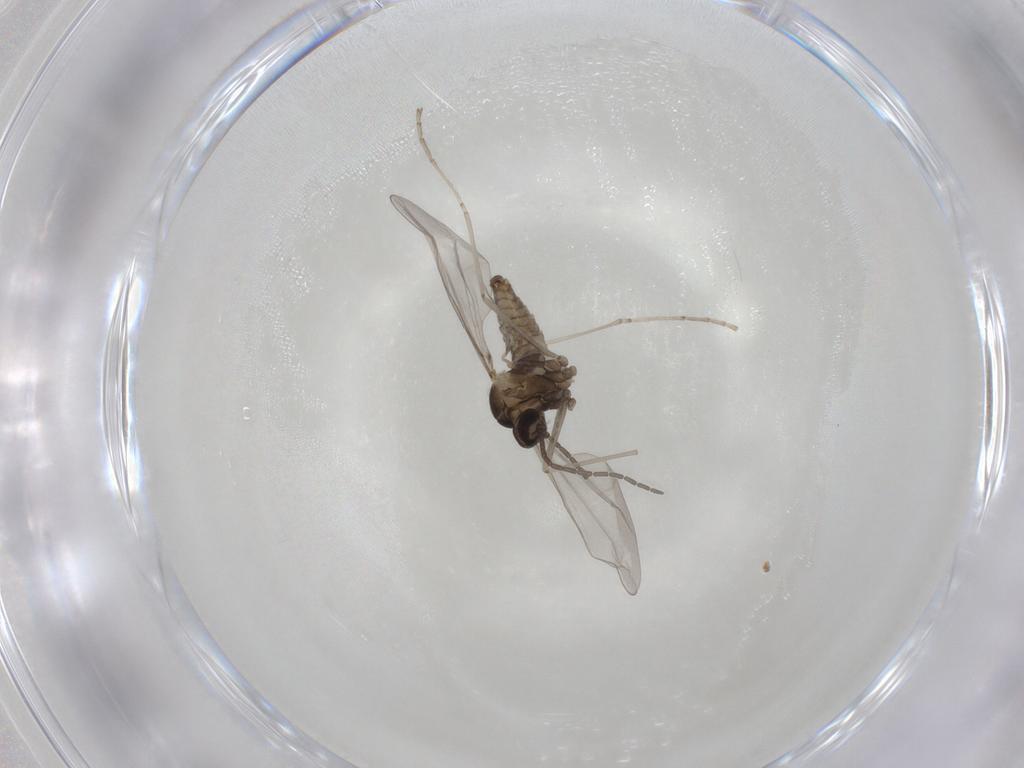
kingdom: Animalia
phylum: Arthropoda
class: Insecta
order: Diptera
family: Cecidomyiidae
